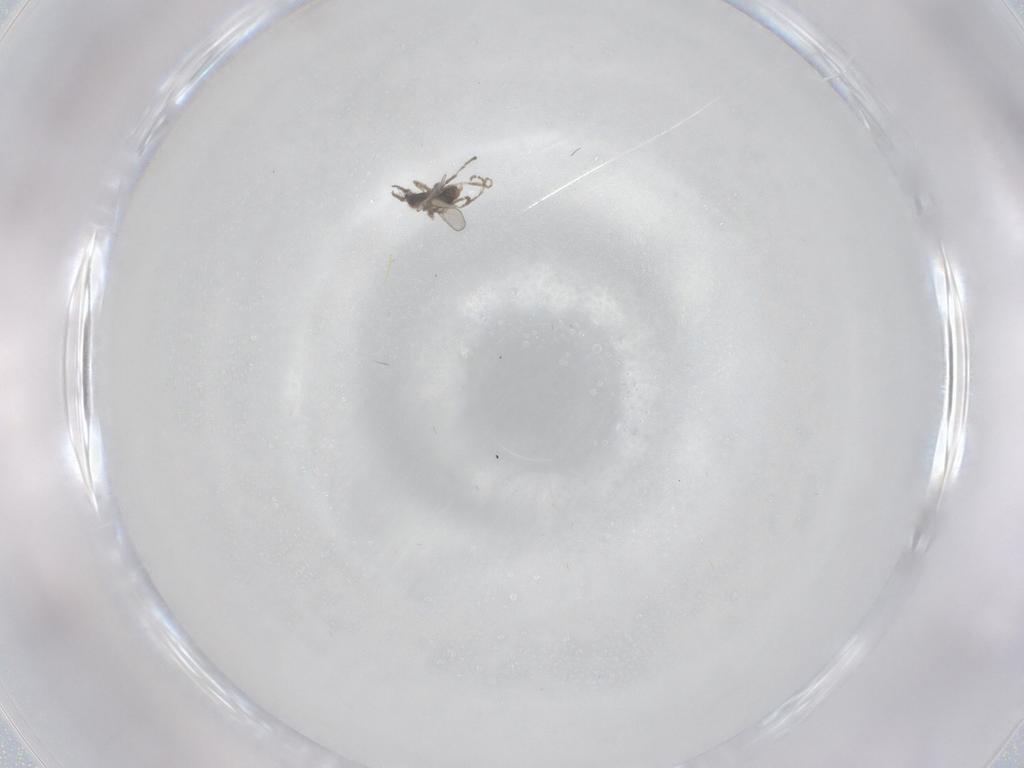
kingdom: Animalia
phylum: Arthropoda
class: Insecta
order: Diptera
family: Cecidomyiidae
